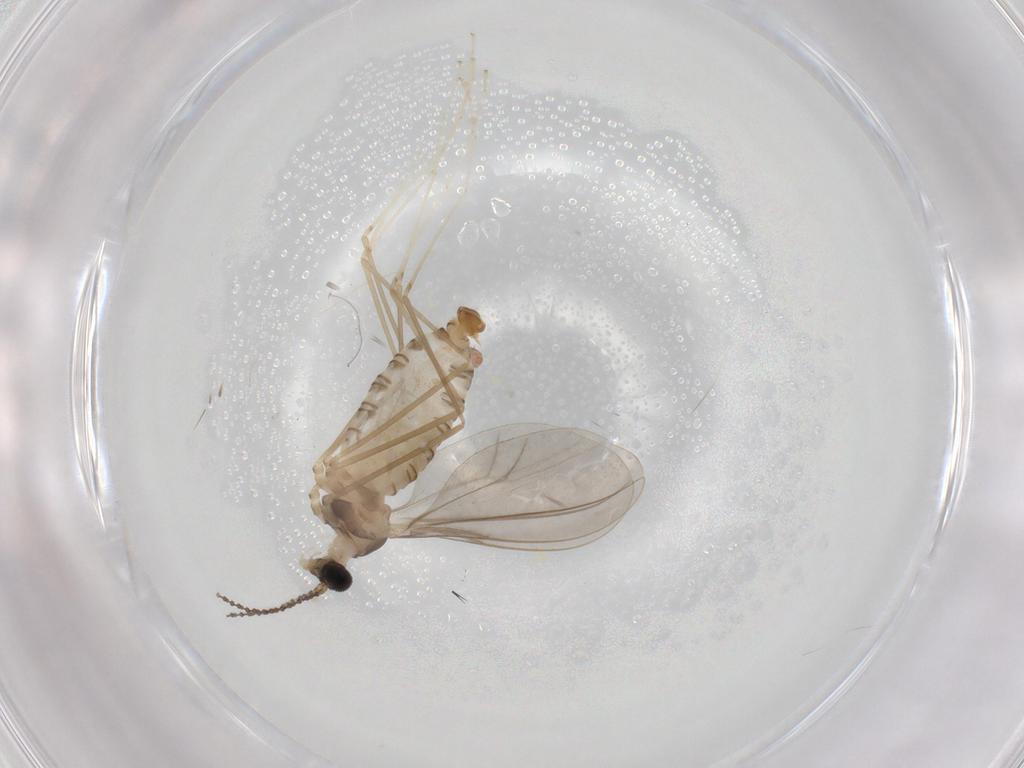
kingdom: Animalia
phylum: Arthropoda
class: Insecta
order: Diptera
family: Cecidomyiidae
